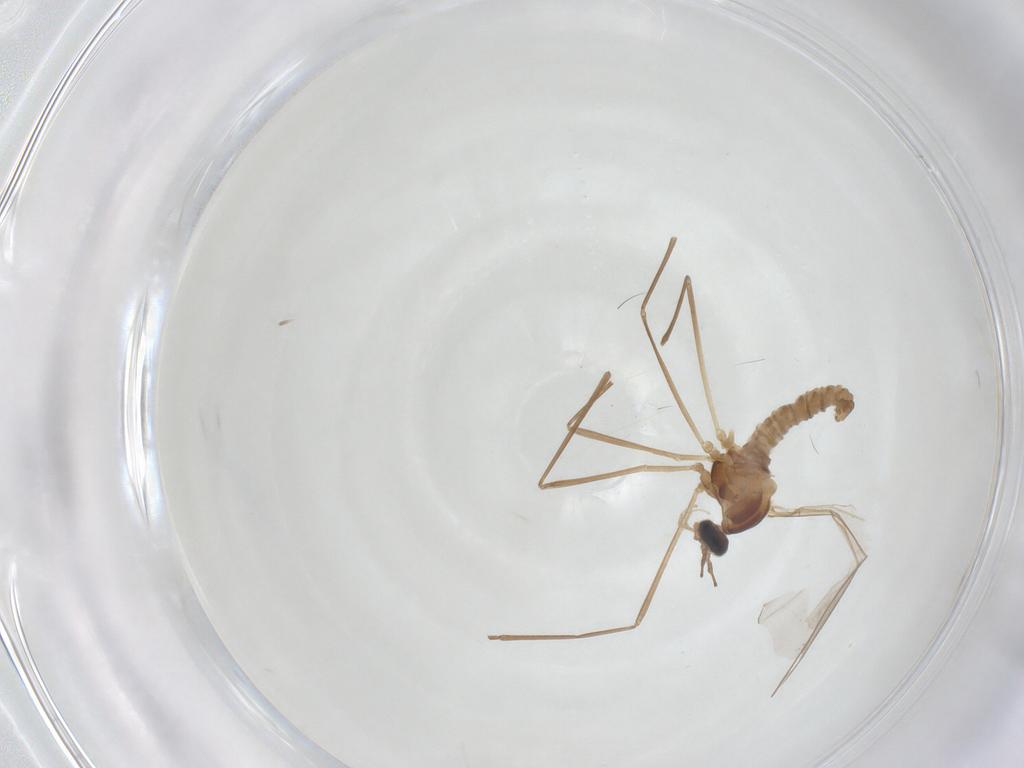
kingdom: Animalia
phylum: Arthropoda
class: Insecta
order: Diptera
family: Cecidomyiidae
